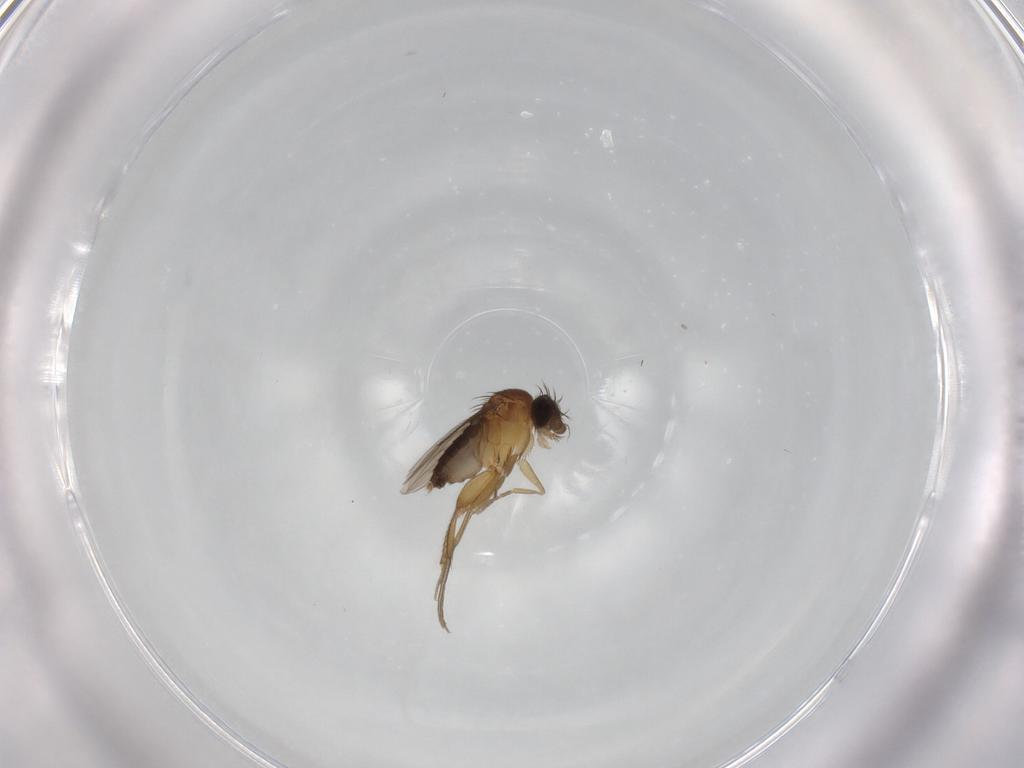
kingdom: Animalia
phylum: Arthropoda
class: Insecta
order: Diptera
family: Phoridae
